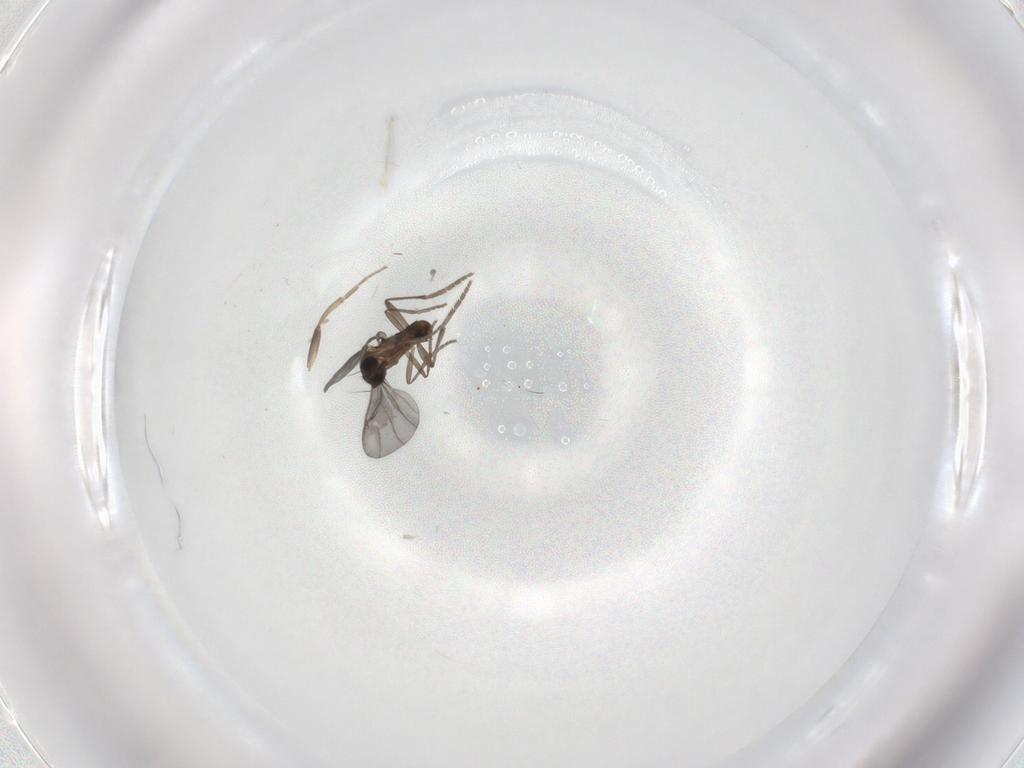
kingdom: Animalia
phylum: Arthropoda
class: Insecta
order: Diptera
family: Phoridae
